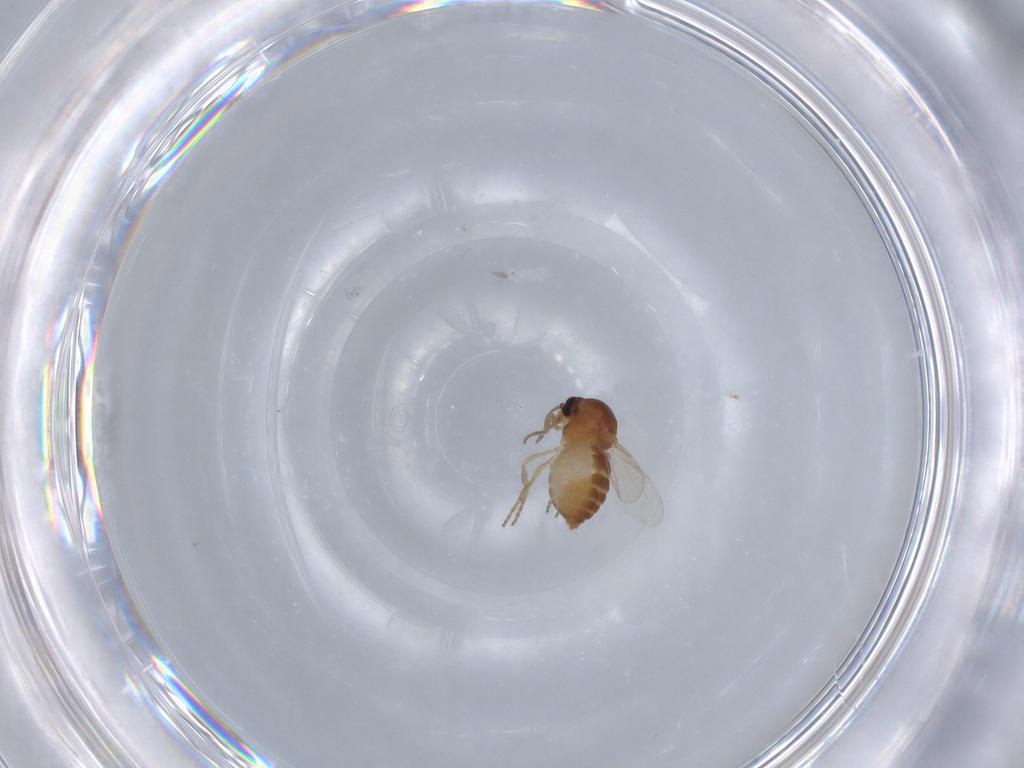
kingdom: Animalia
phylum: Arthropoda
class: Insecta
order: Diptera
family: Ceratopogonidae
